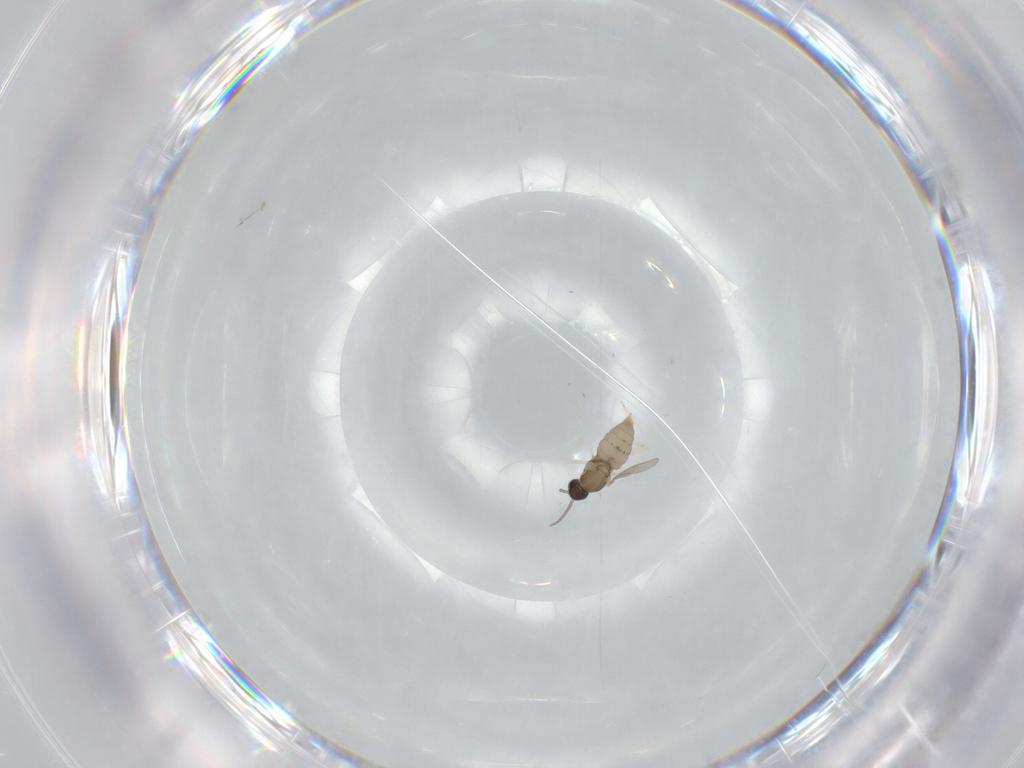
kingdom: Animalia
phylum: Arthropoda
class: Insecta
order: Diptera
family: Cecidomyiidae
